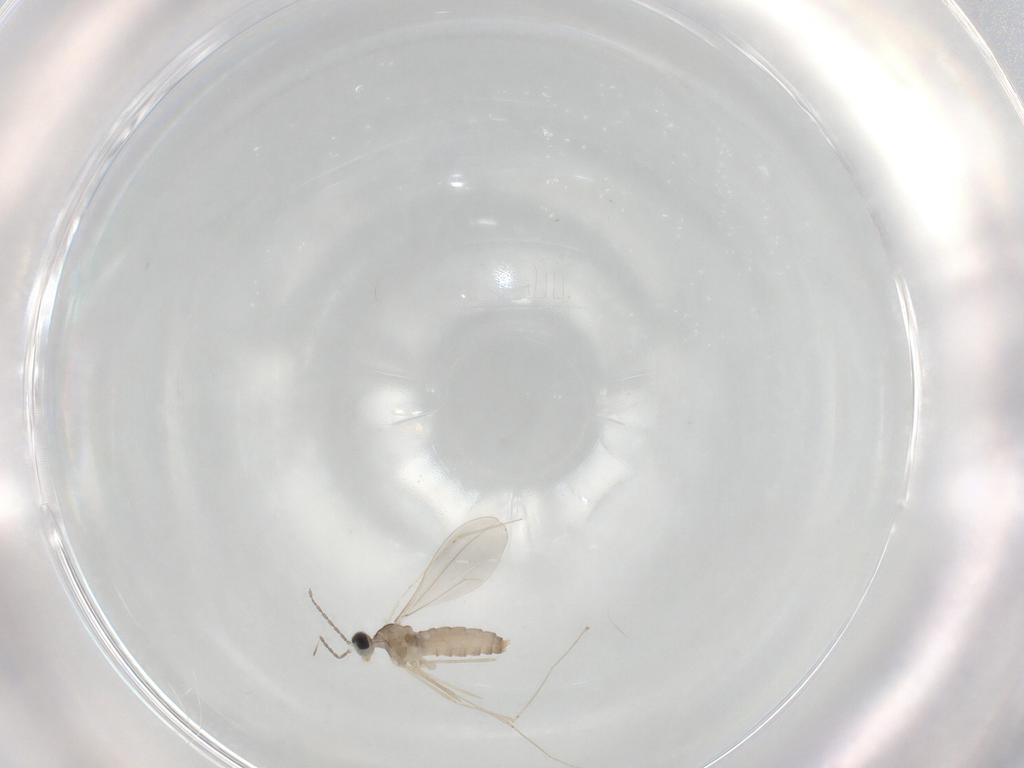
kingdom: Animalia
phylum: Arthropoda
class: Insecta
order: Diptera
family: Cecidomyiidae
